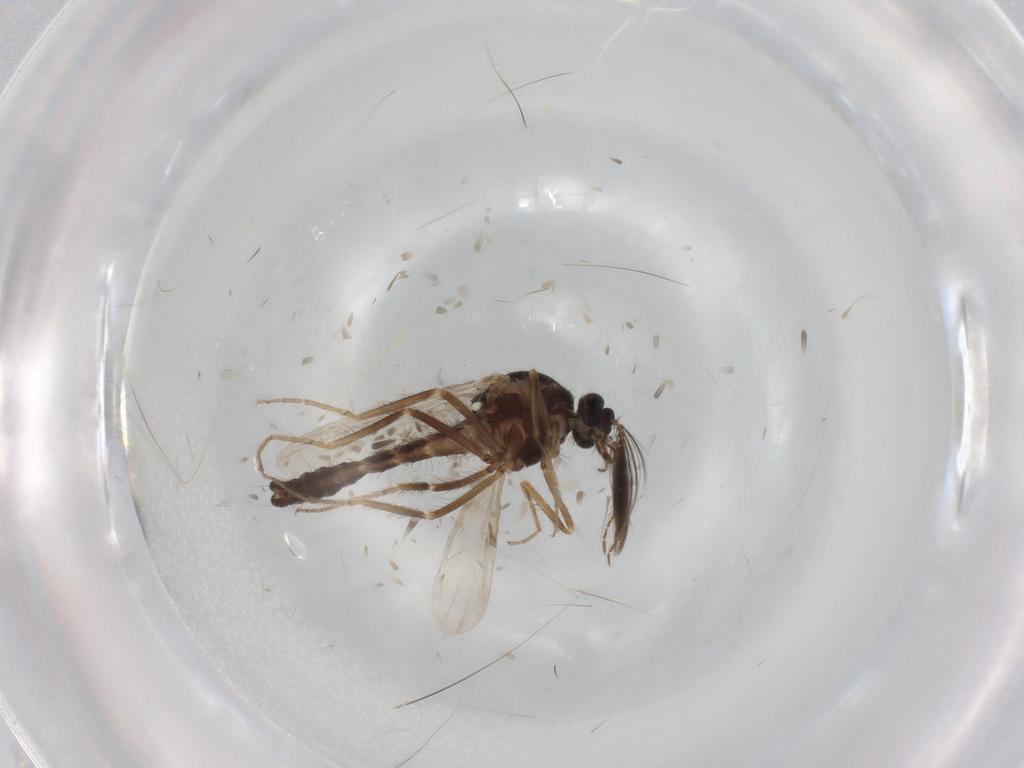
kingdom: Animalia
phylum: Arthropoda
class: Insecta
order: Diptera
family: Ceratopogonidae
